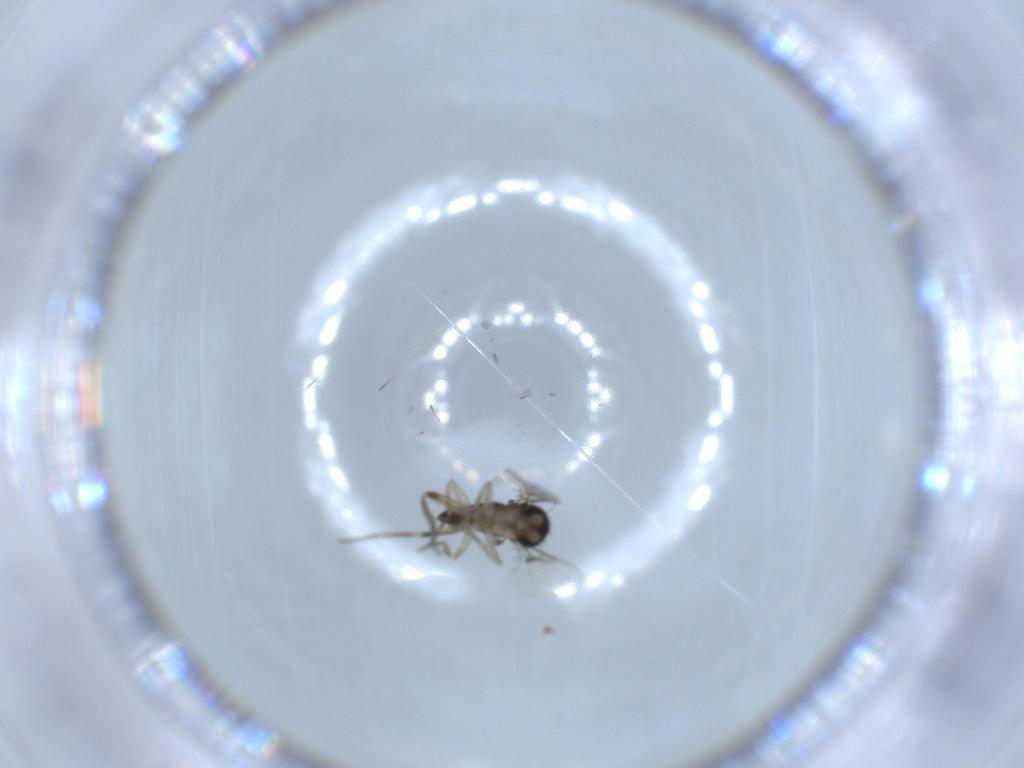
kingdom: Animalia
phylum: Arthropoda
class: Insecta
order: Diptera
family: Phoridae
